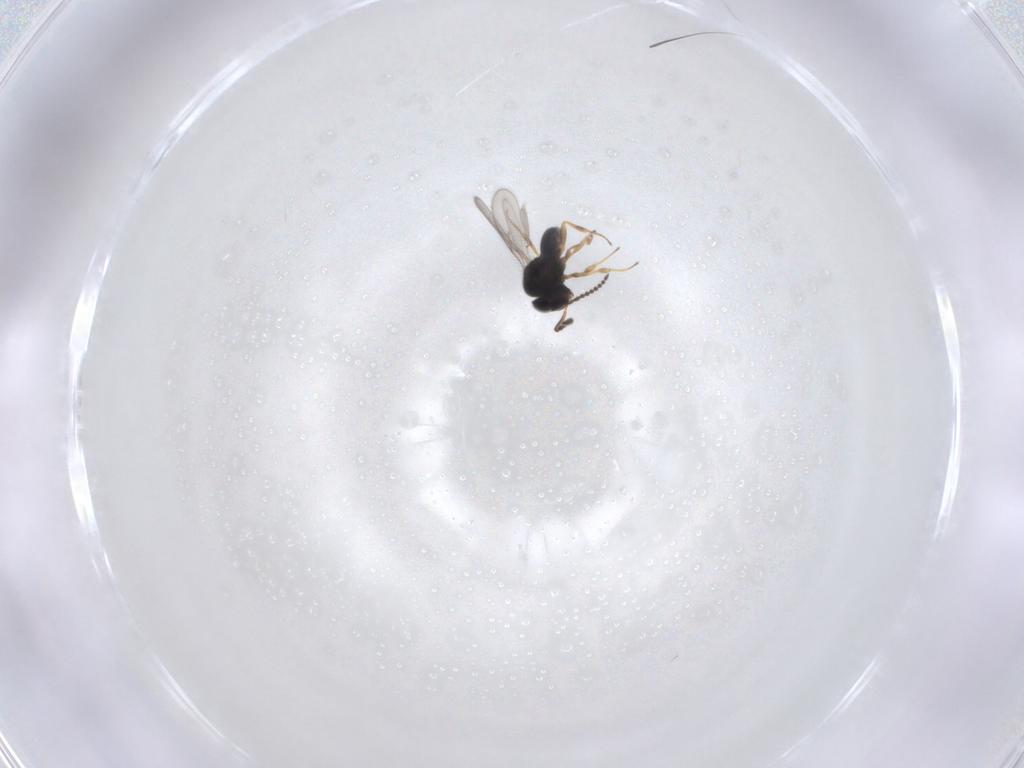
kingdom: Animalia
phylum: Arthropoda
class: Insecta
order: Hymenoptera
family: Scelionidae
